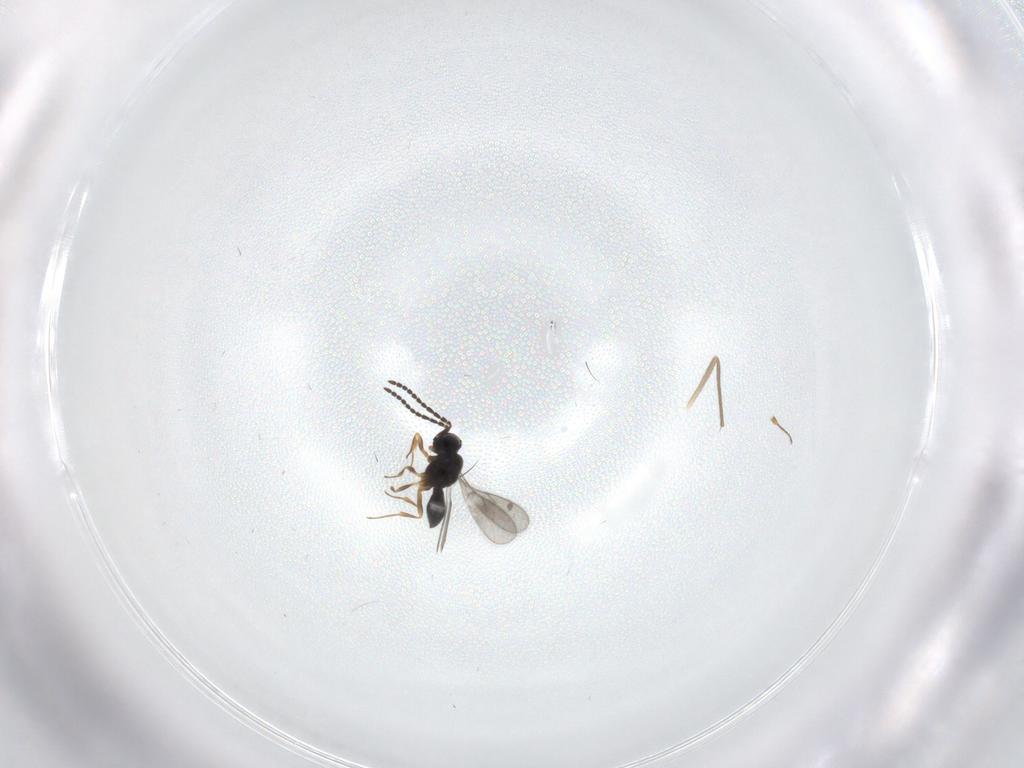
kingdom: Animalia
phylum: Arthropoda
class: Insecta
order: Hymenoptera
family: Scelionidae
